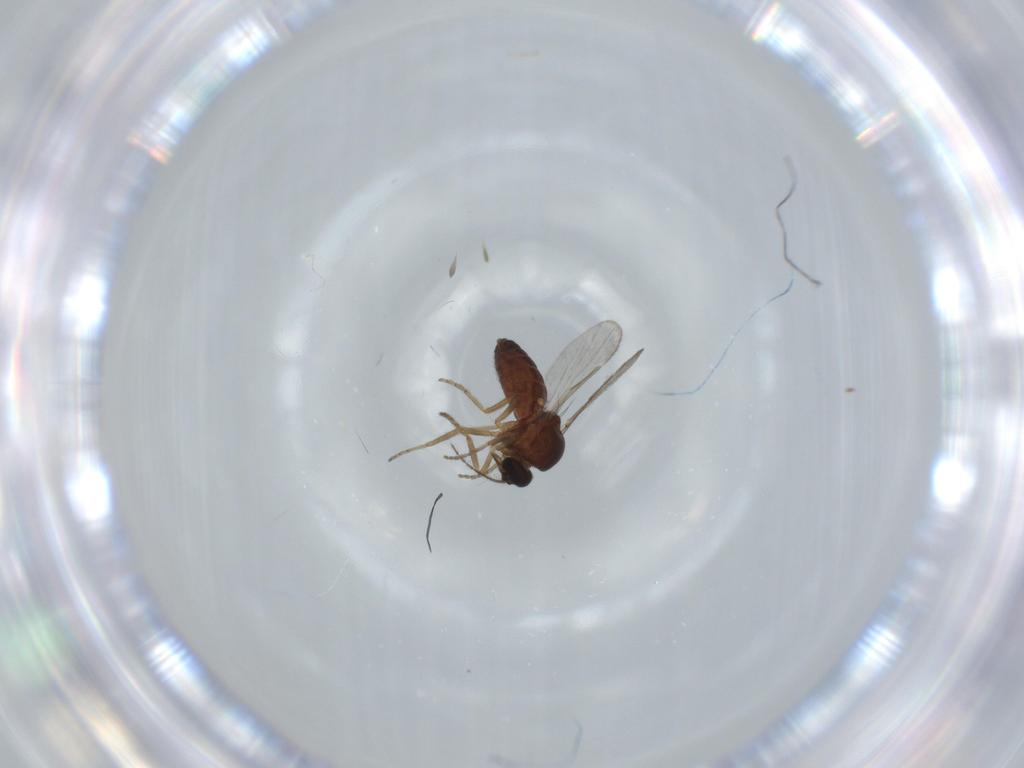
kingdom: Animalia
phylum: Arthropoda
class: Insecta
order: Diptera
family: Ceratopogonidae
